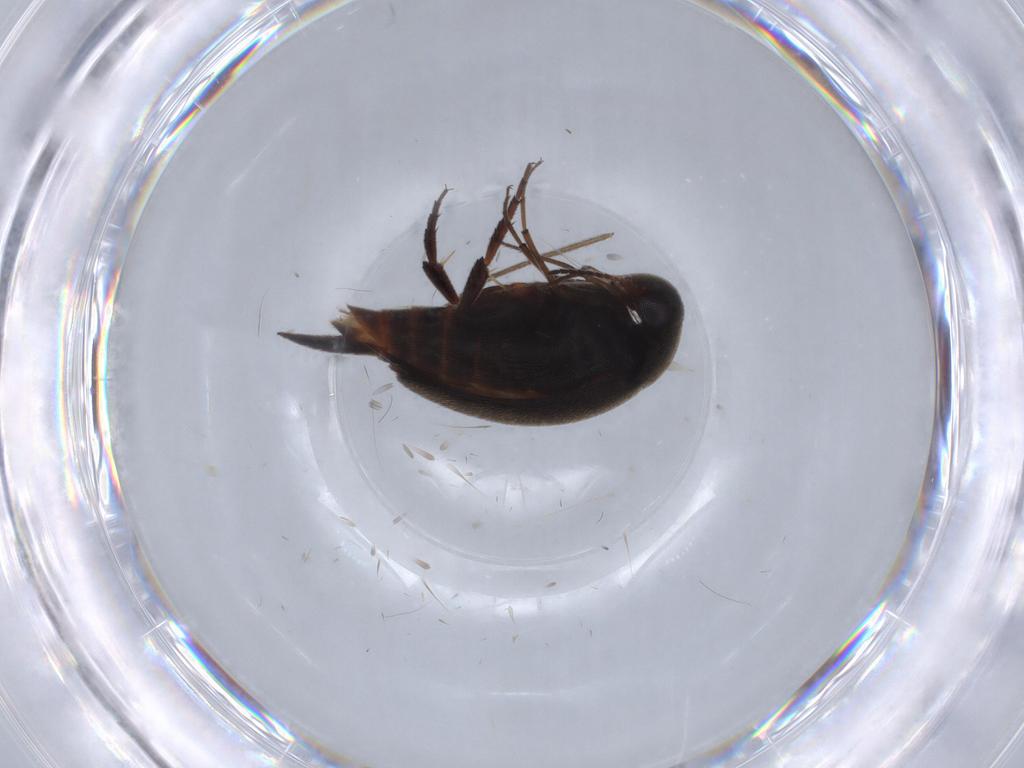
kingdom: Animalia
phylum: Arthropoda
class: Insecta
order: Coleoptera
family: Mordellidae
